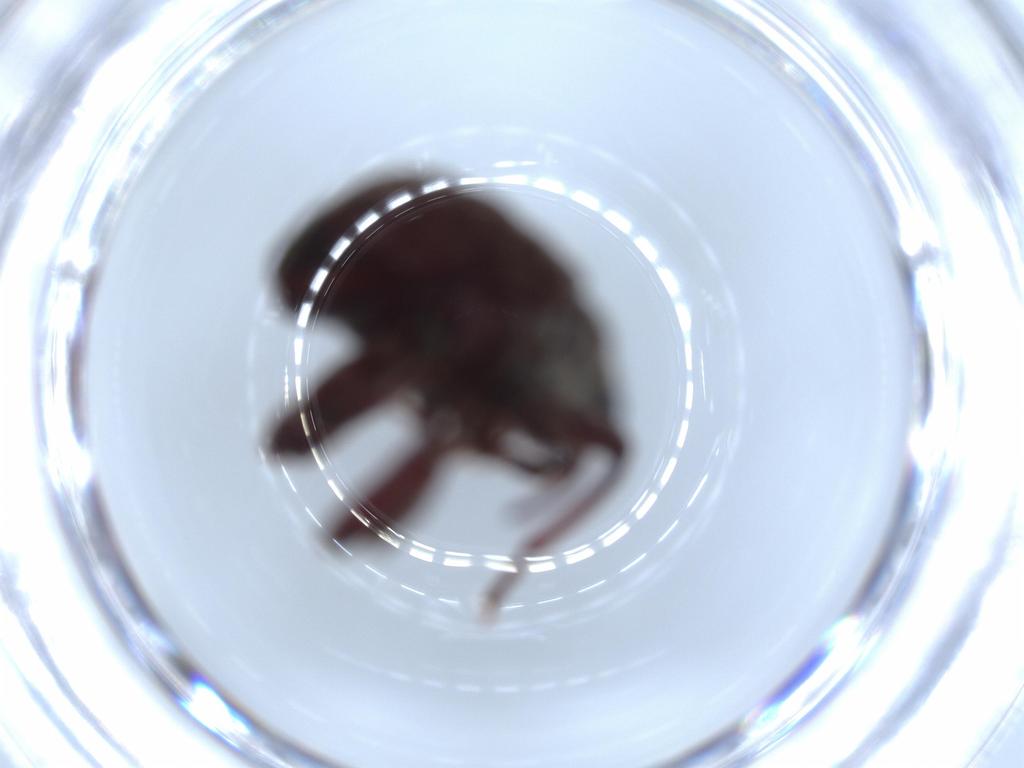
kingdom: Animalia
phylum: Arthropoda
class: Insecta
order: Coleoptera
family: Curculionidae
